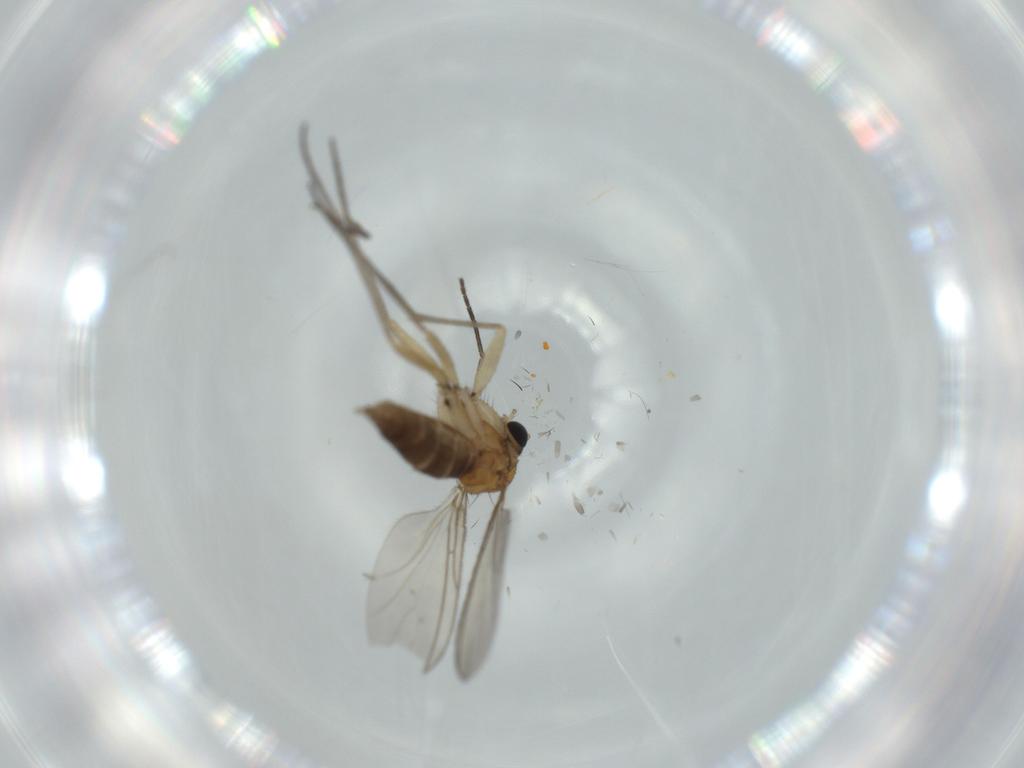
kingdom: Animalia
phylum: Arthropoda
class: Insecta
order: Diptera
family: Sciaridae
